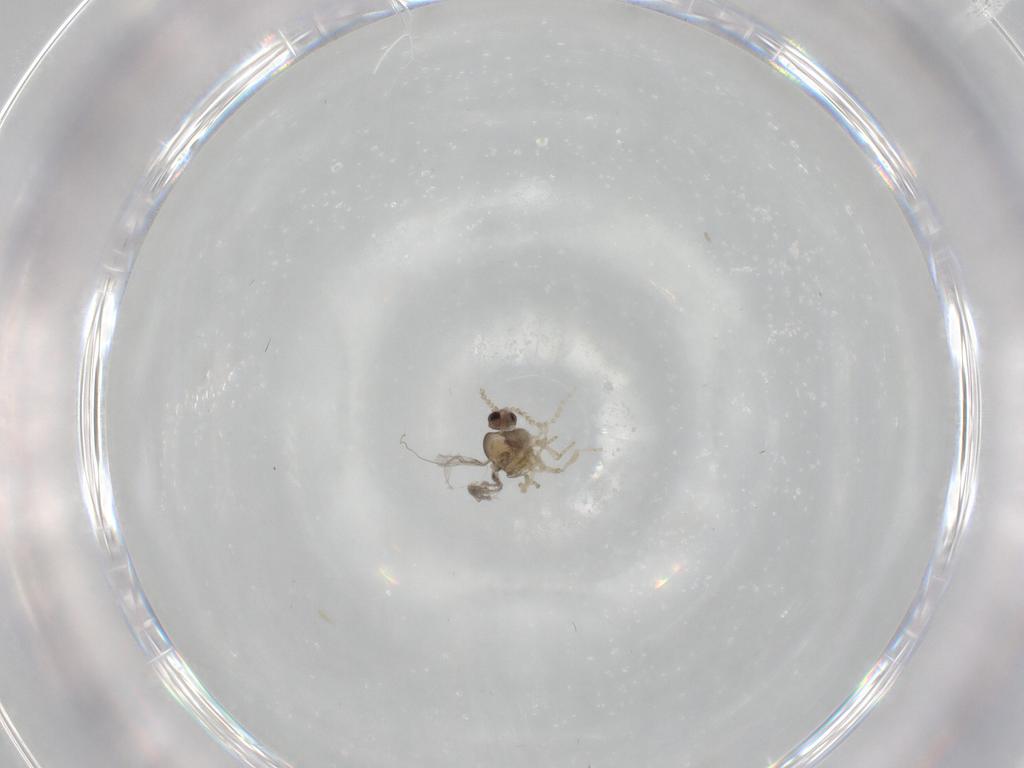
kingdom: Animalia
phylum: Arthropoda
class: Insecta
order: Diptera
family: Cecidomyiidae
